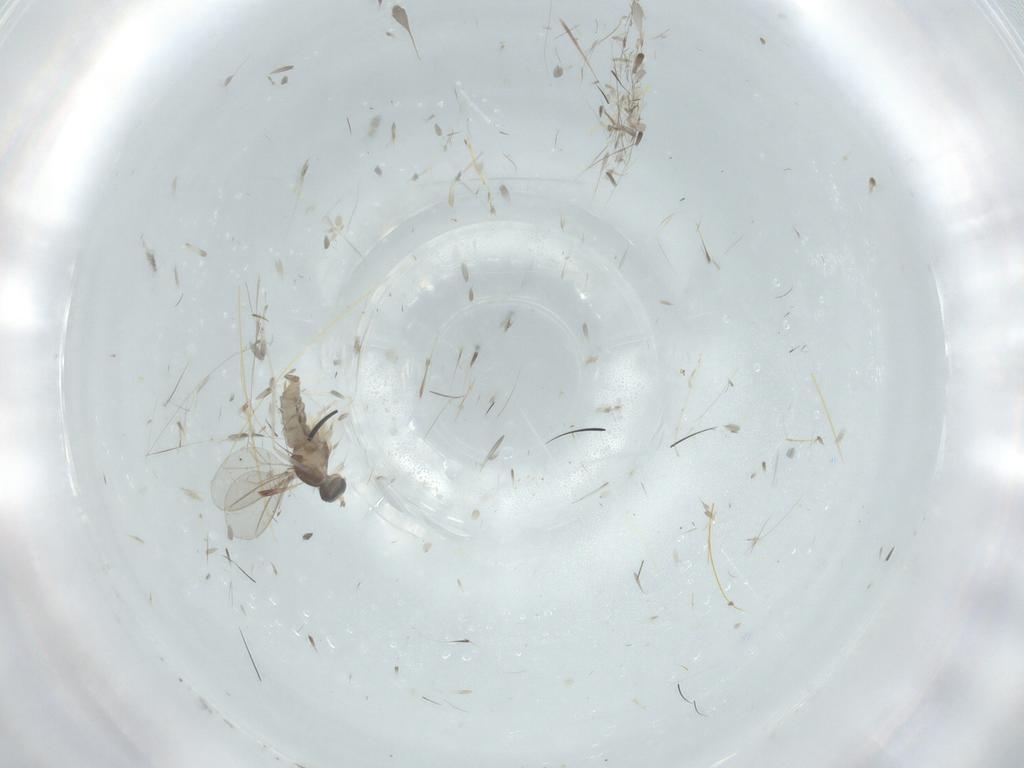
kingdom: Animalia
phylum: Arthropoda
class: Insecta
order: Diptera
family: Cecidomyiidae
